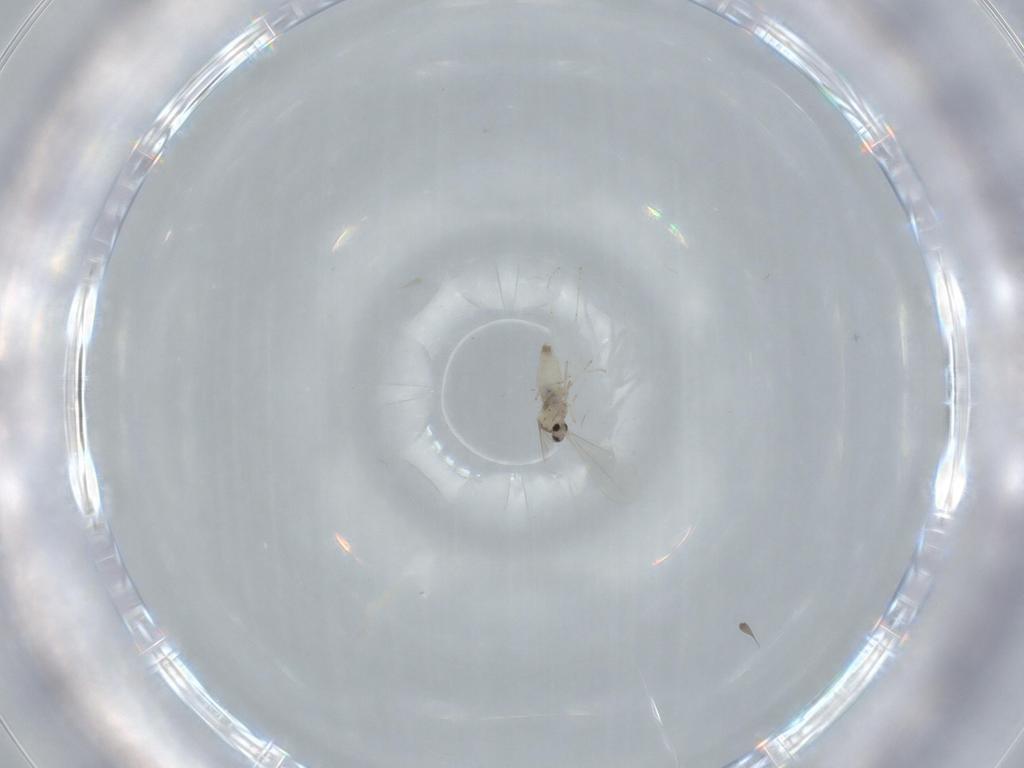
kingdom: Animalia
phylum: Arthropoda
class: Insecta
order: Diptera
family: Cecidomyiidae
